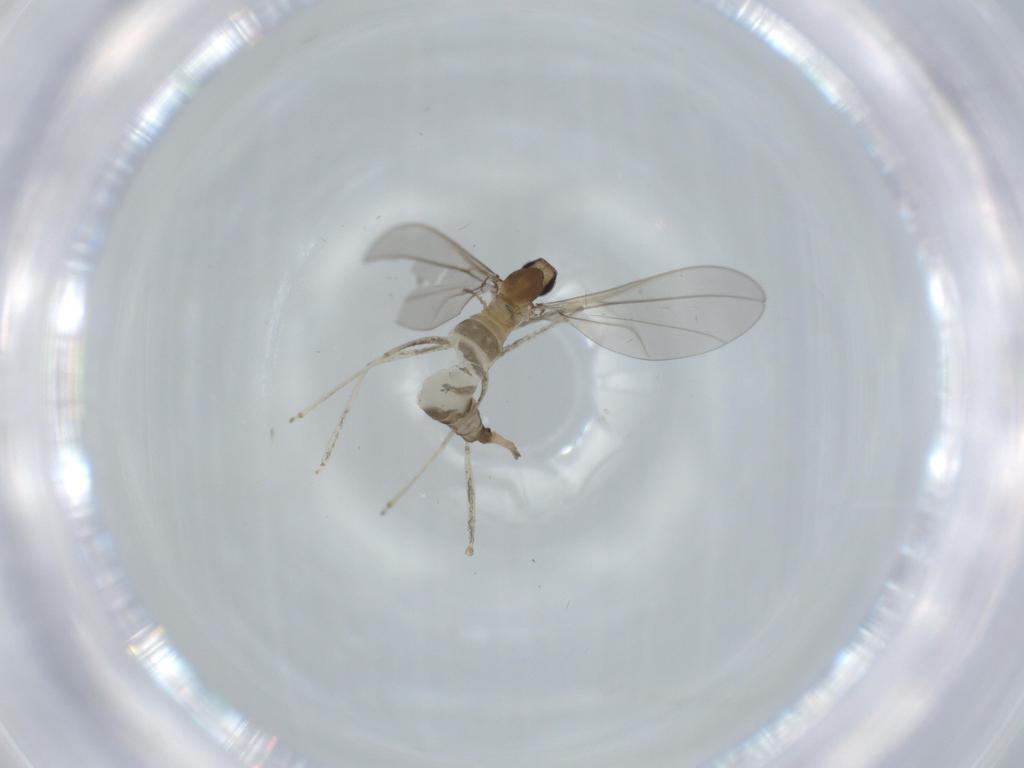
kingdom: Animalia
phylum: Arthropoda
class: Insecta
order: Diptera
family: Cecidomyiidae
